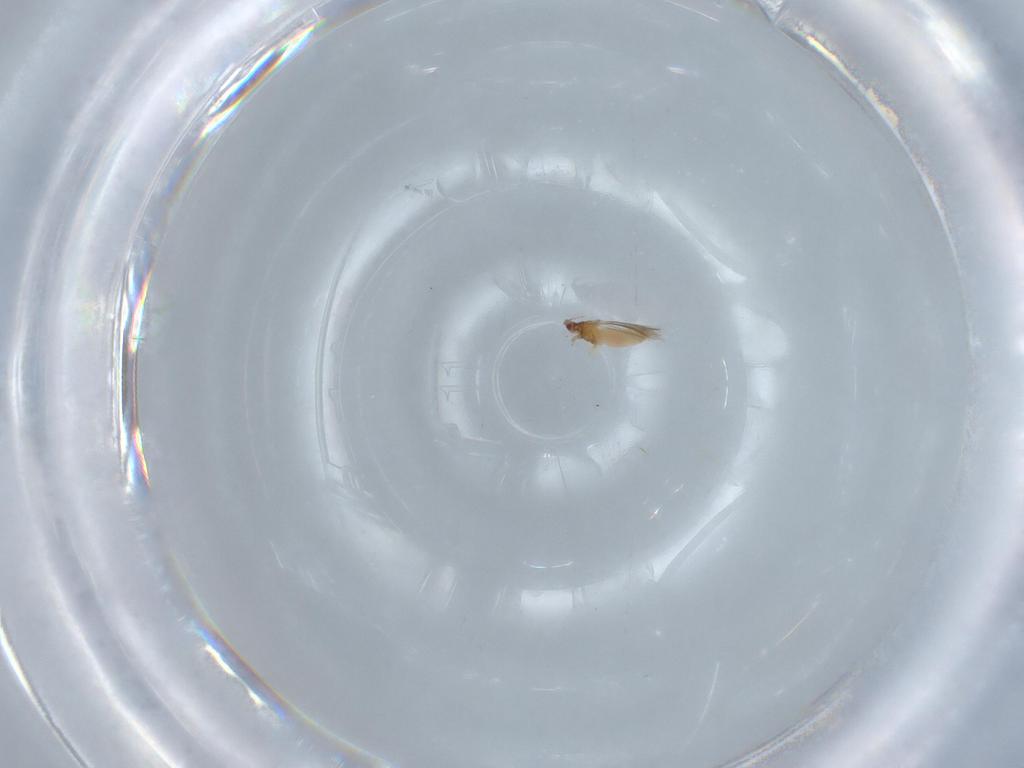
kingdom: Animalia
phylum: Arthropoda
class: Insecta
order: Thysanoptera
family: Thripidae
